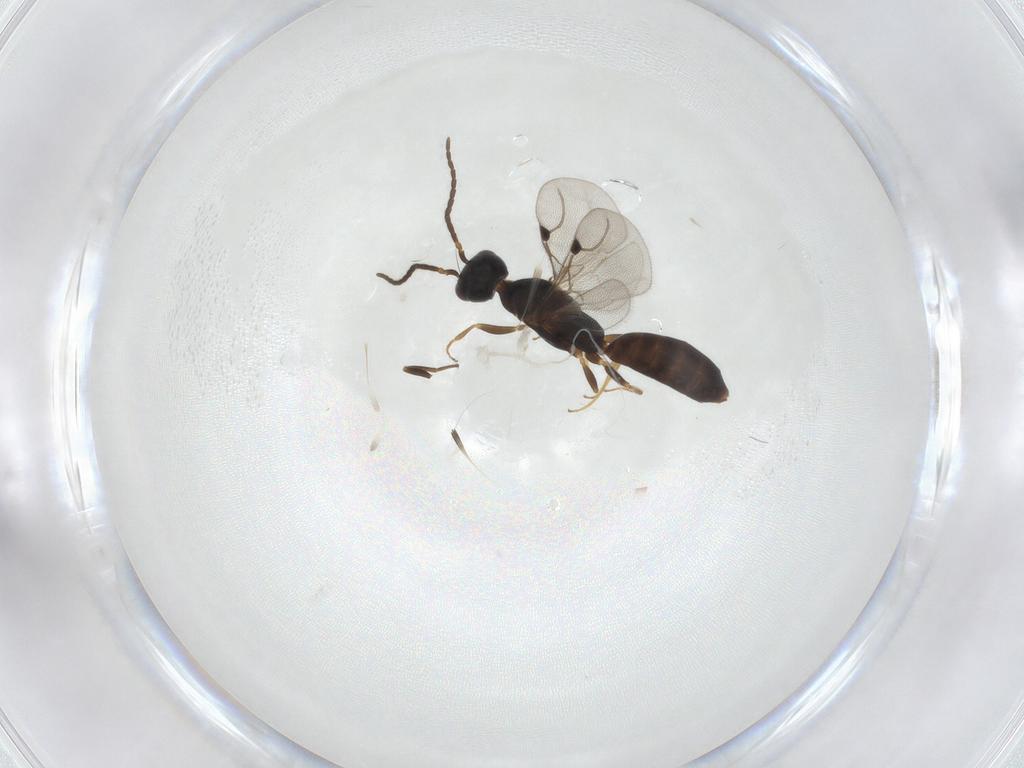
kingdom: Animalia
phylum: Arthropoda
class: Insecta
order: Hymenoptera
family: Bethylidae
